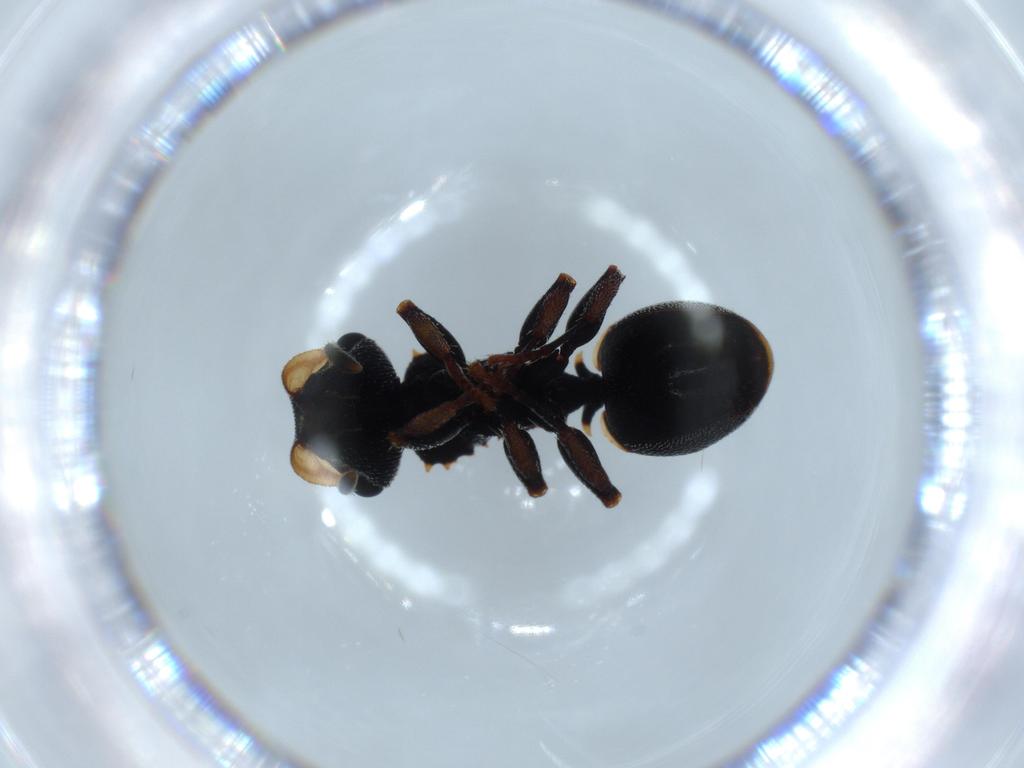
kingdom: Animalia
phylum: Arthropoda
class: Insecta
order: Hymenoptera
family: Formicidae
